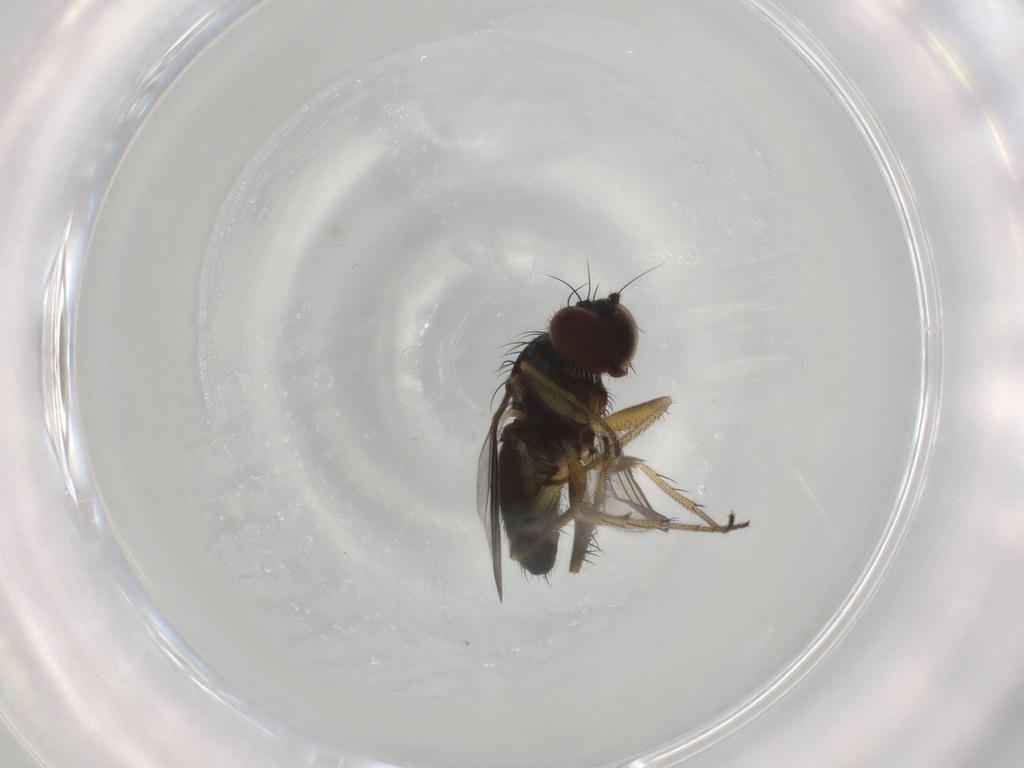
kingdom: Animalia
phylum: Arthropoda
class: Insecta
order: Diptera
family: Dolichopodidae
